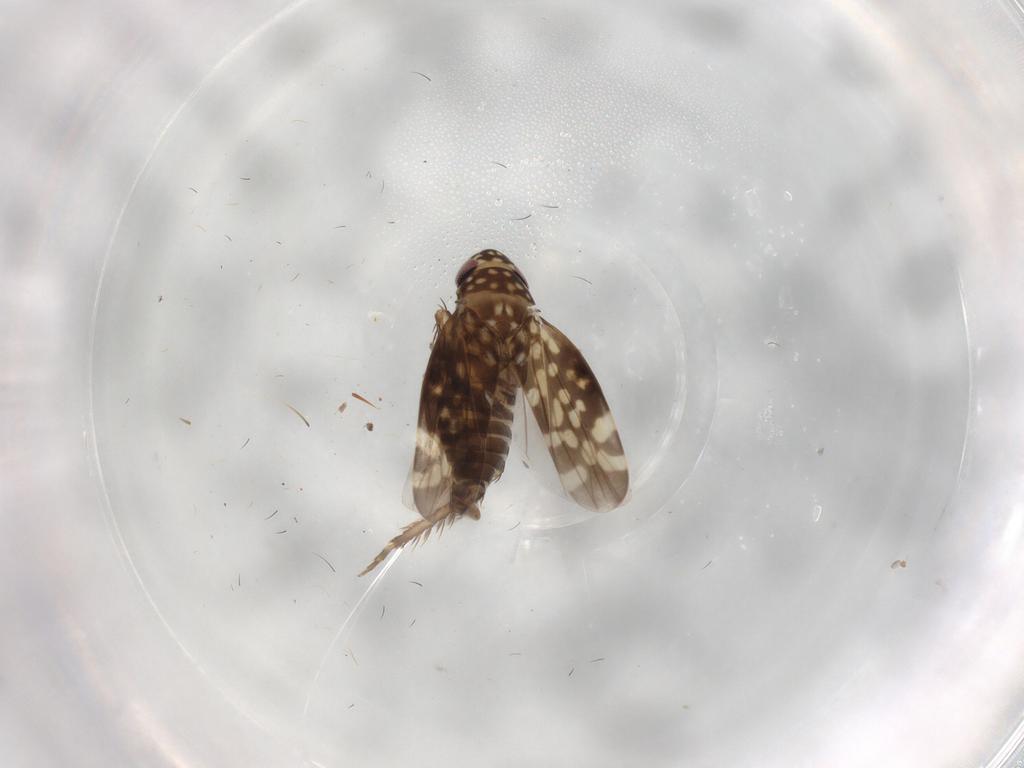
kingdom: Animalia
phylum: Arthropoda
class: Insecta
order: Hemiptera
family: Cicadellidae
